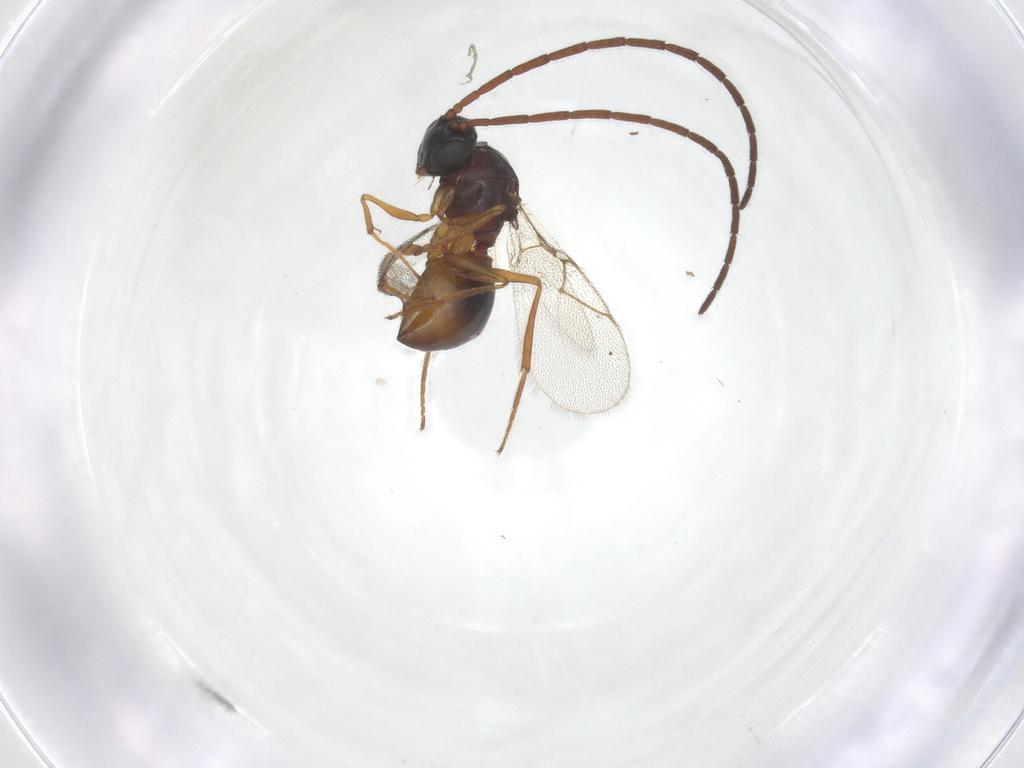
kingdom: Animalia
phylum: Arthropoda
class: Insecta
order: Hymenoptera
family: Figitidae
